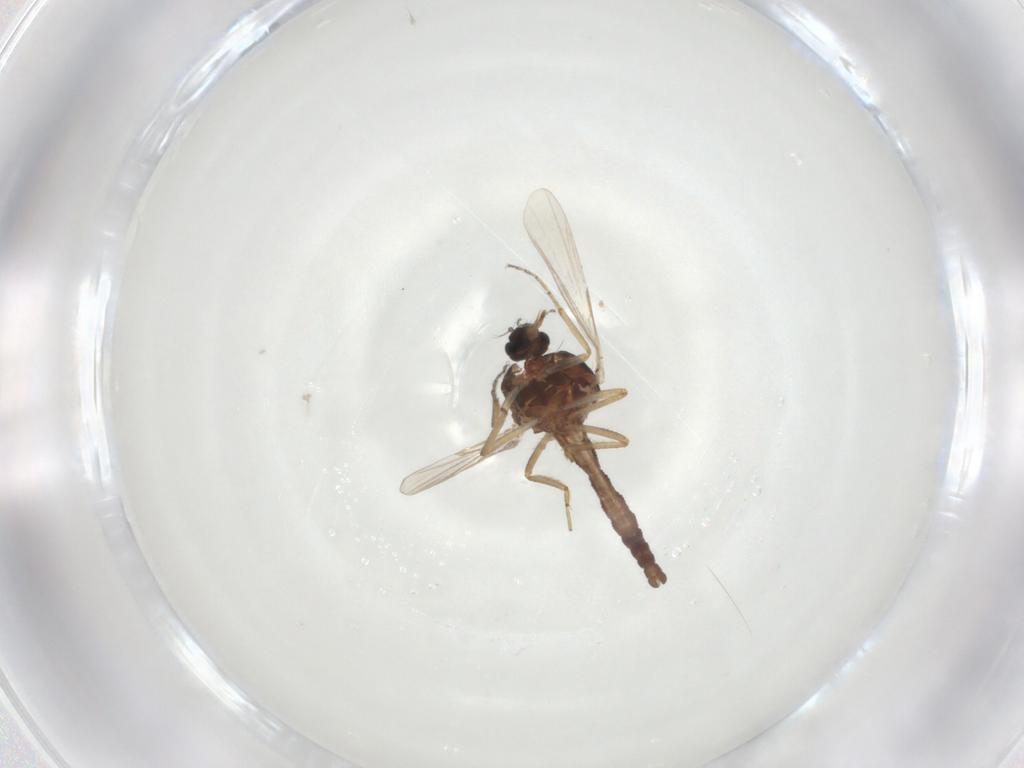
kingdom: Animalia
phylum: Arthropoda
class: Insecta
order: Diptera
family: Ceratopogonidae
